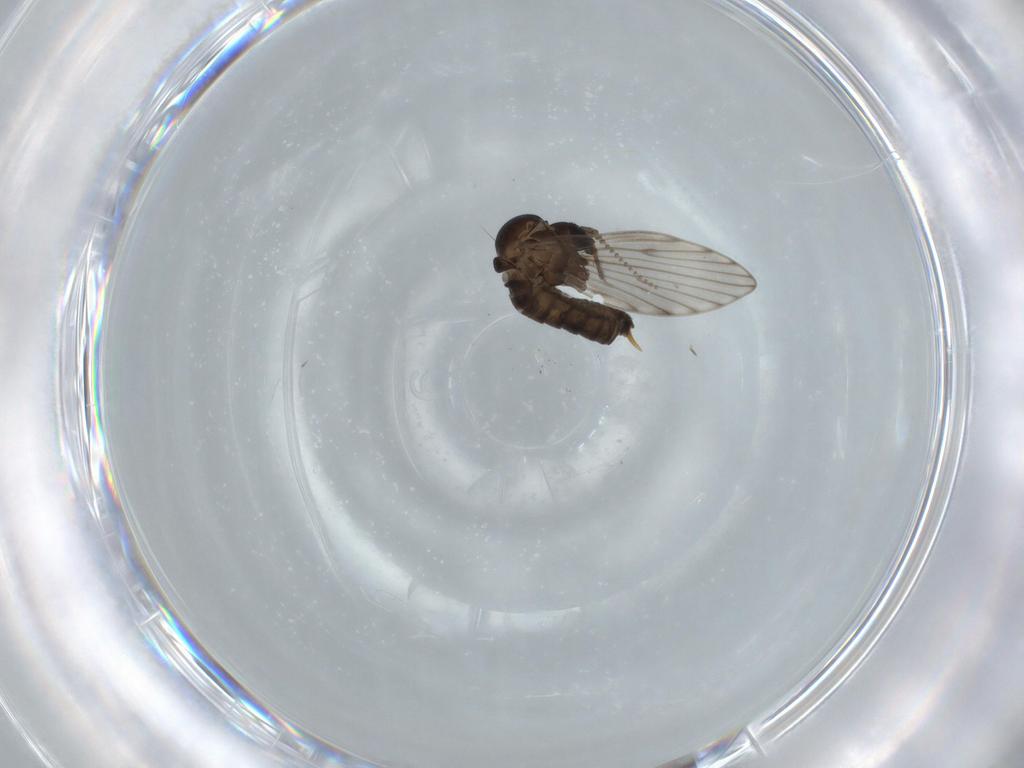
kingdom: Animalia
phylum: Arthropoda
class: Insecta
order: Diptera
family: Psychodidae
